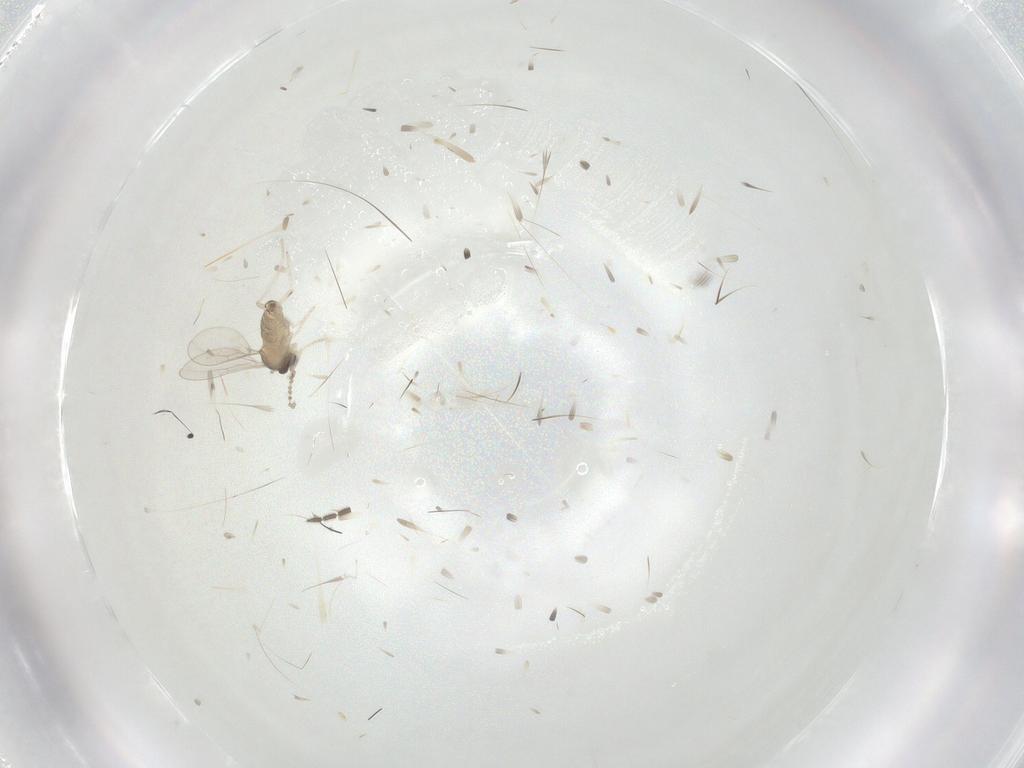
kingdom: Animalia
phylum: Arthropoda
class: Insecta
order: Diptera
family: Cecidomyiidae
